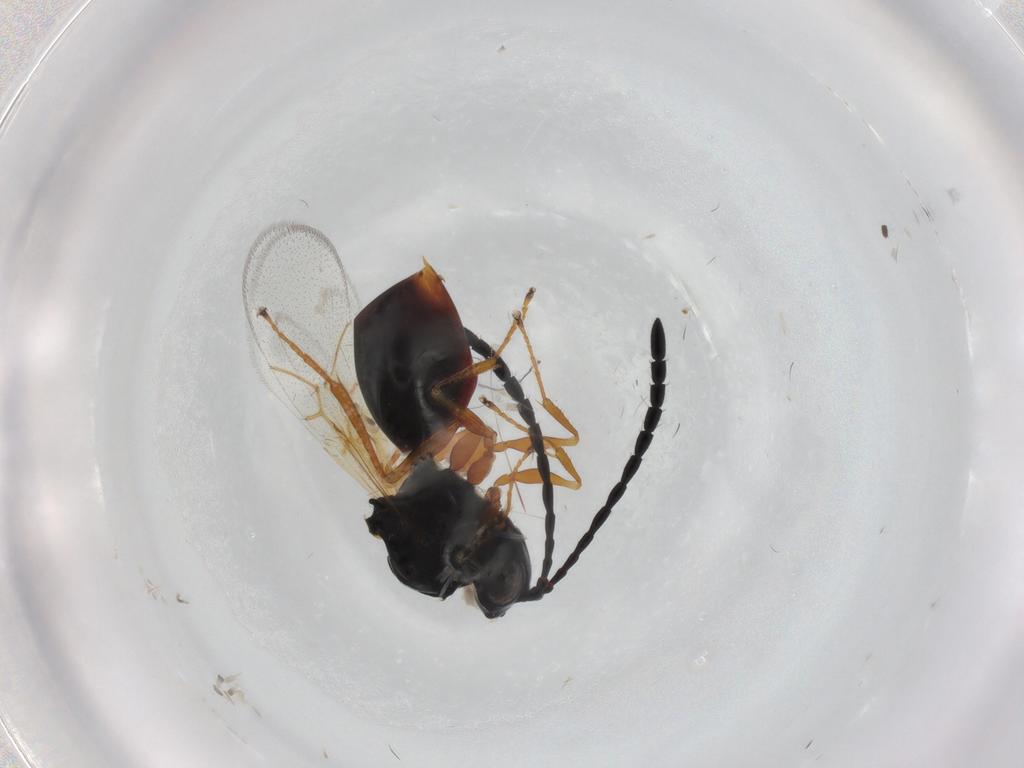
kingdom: Animalia
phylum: Arthropoda
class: Insecta
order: Hymenoptera
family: Figitidae
